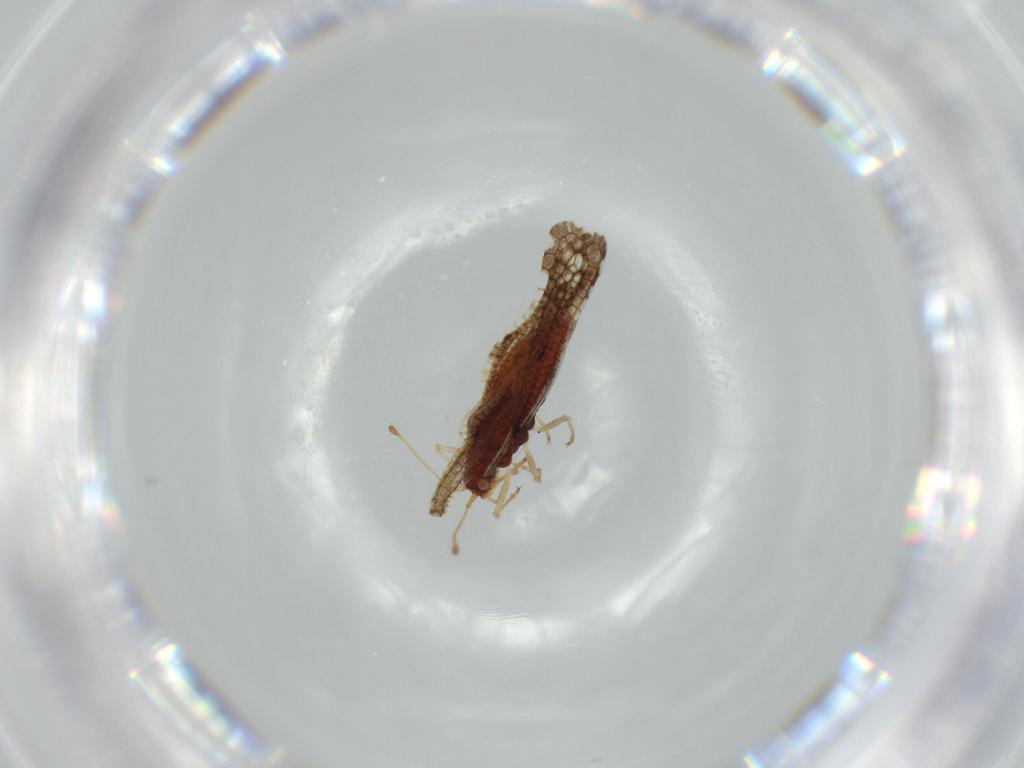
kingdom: Animalia
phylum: Arthropoda
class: Insecta
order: Hemiptera
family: Tingidae
